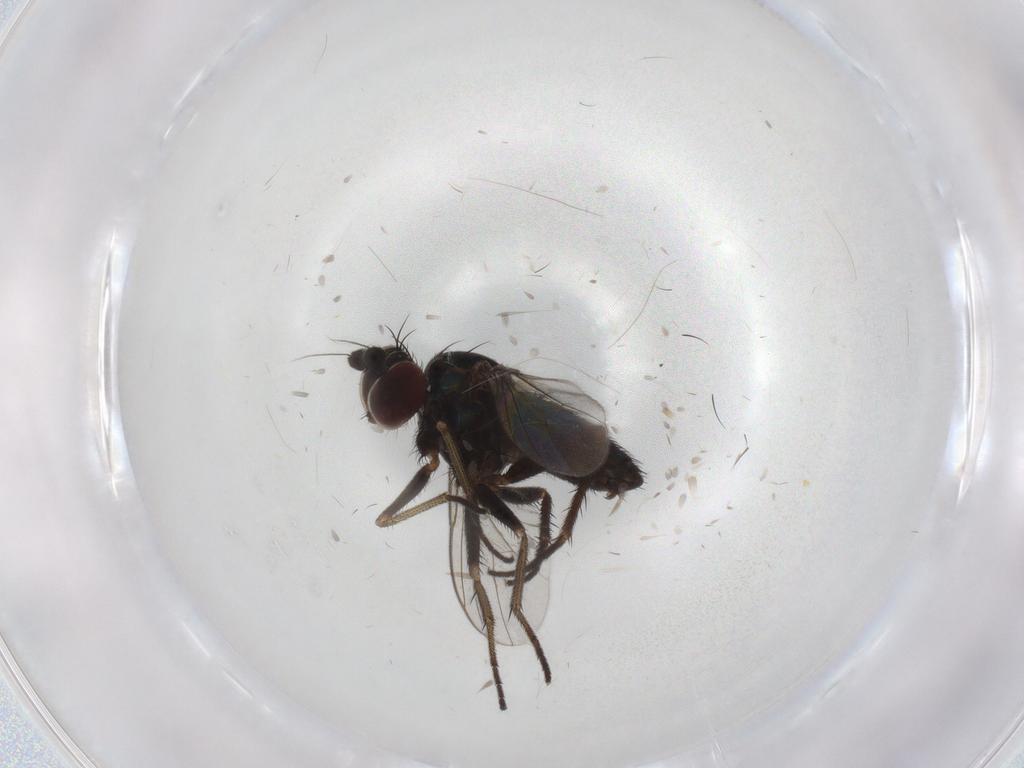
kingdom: Animalia
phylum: Arthropoda
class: Insecta
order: Diptera
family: Dolichopodidae
